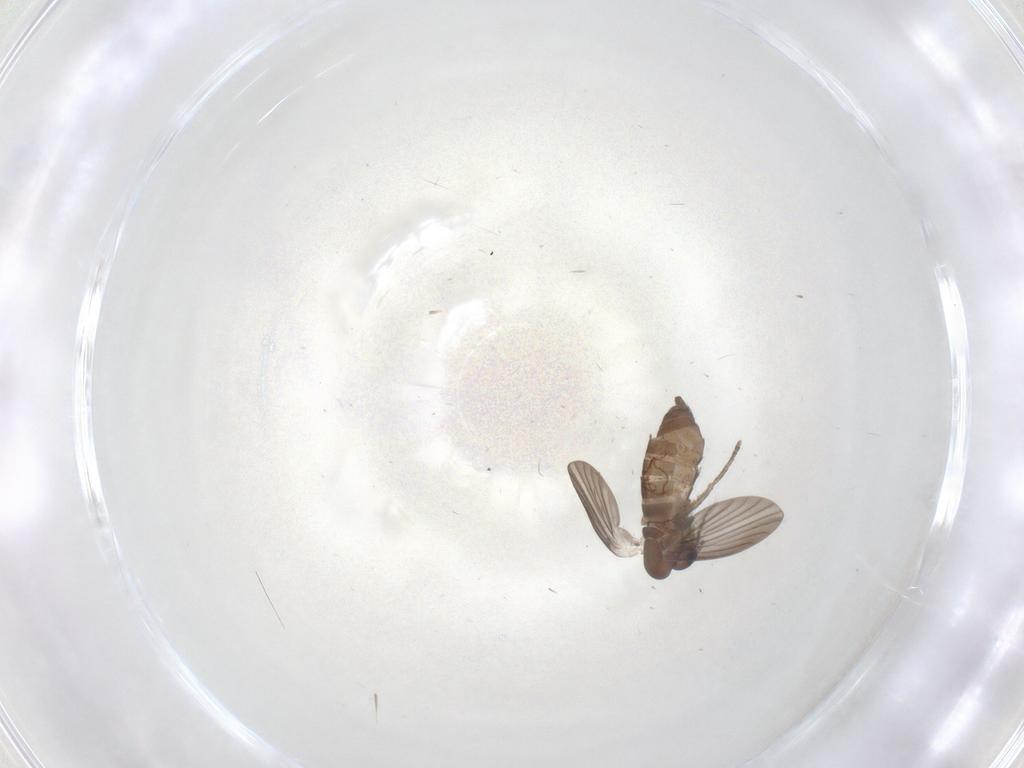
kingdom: Animalia
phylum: Arthropoda
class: Insecta
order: Diptera
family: Psychodidae
